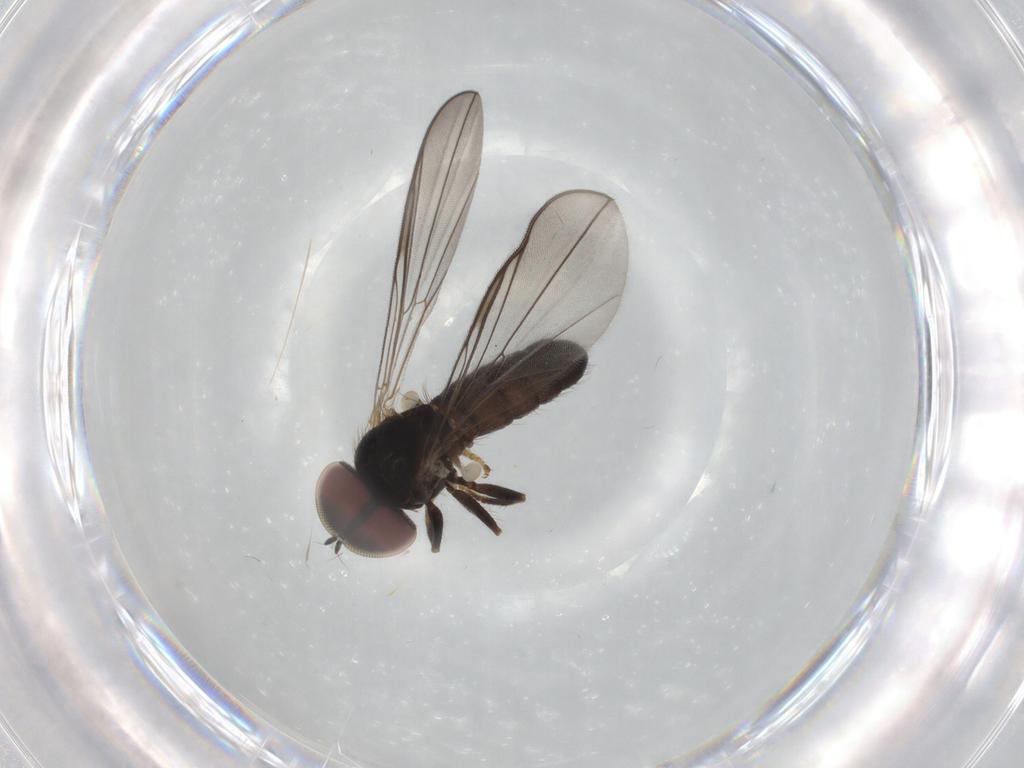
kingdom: Animalia
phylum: Arthropoda
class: Insecta
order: Diptera
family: Pipunculidae
